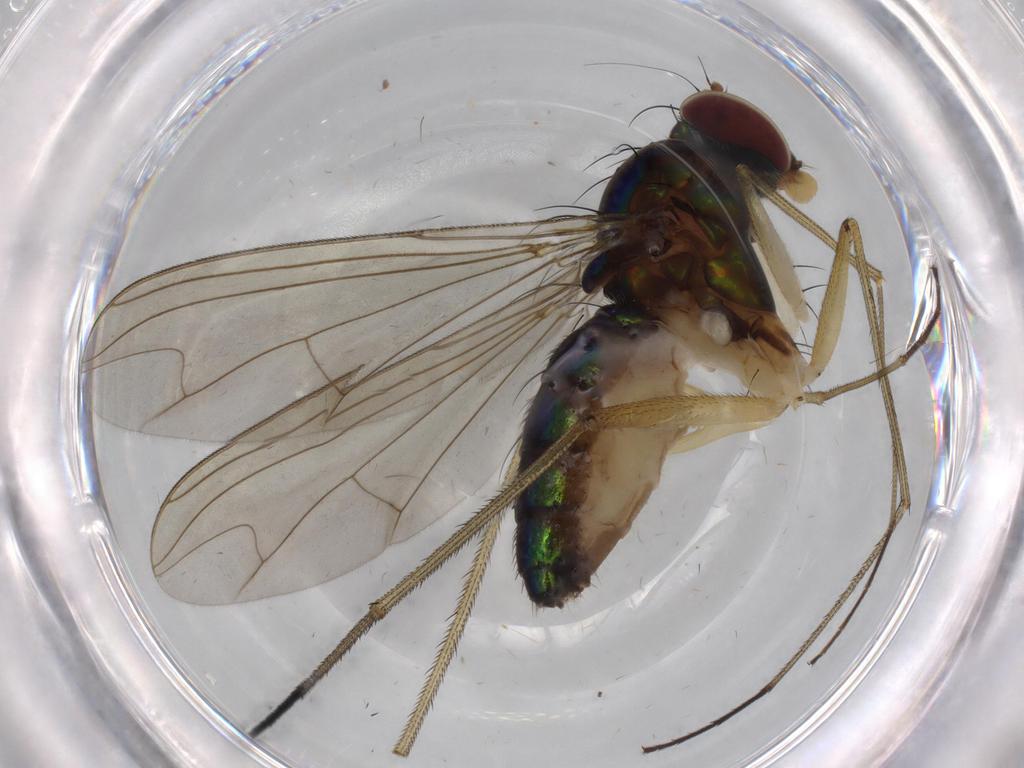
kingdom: Animalia
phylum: Arthropoda
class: Insecta
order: Diptera
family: Dolichopodidae
